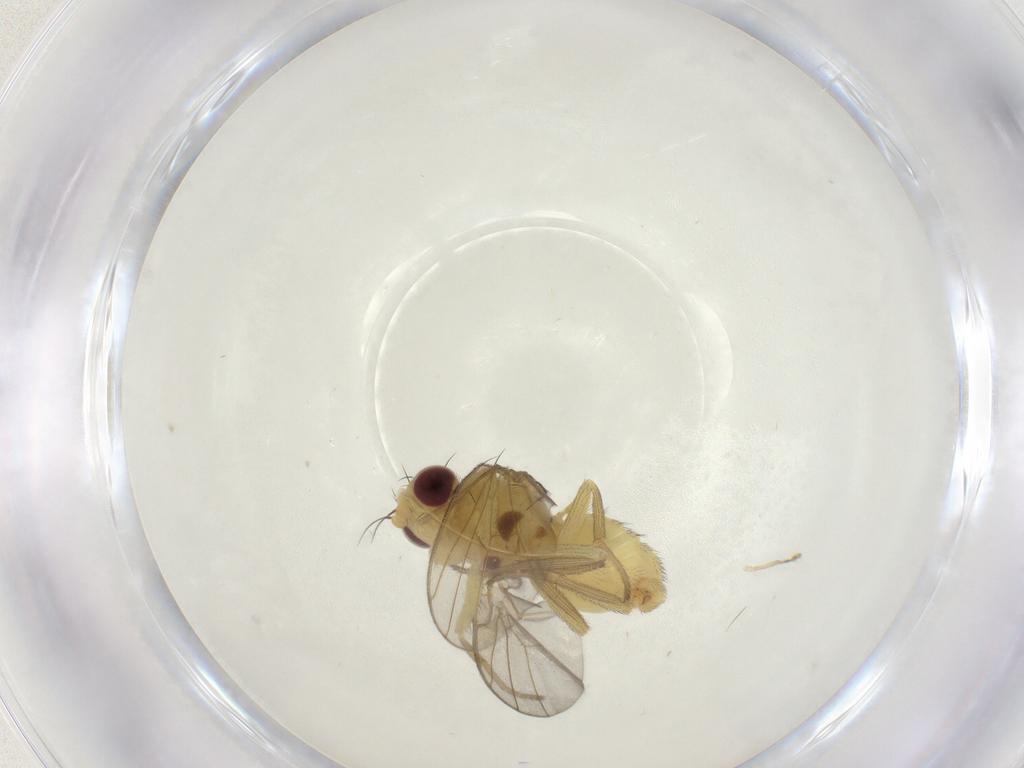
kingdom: Animalia
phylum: Arthropoda
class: Insecta
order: Diptera
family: Agromyzidae
